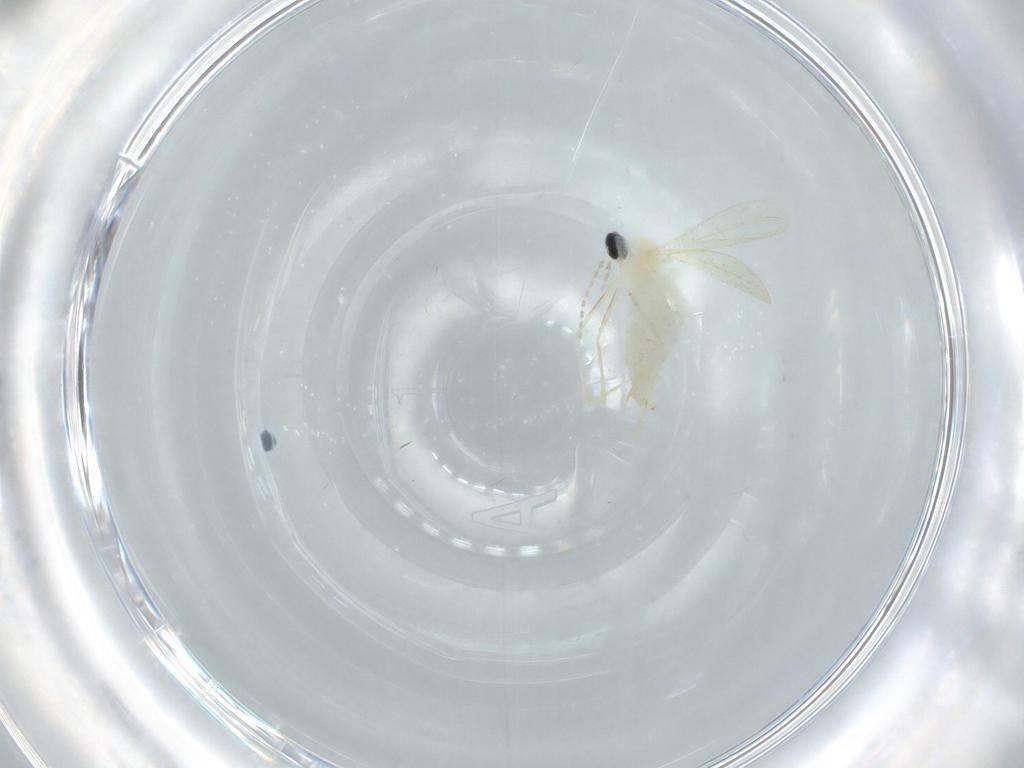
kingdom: Animalia
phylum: Arthropoda
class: Insecta
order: Diptera
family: Cecidomyiidae
